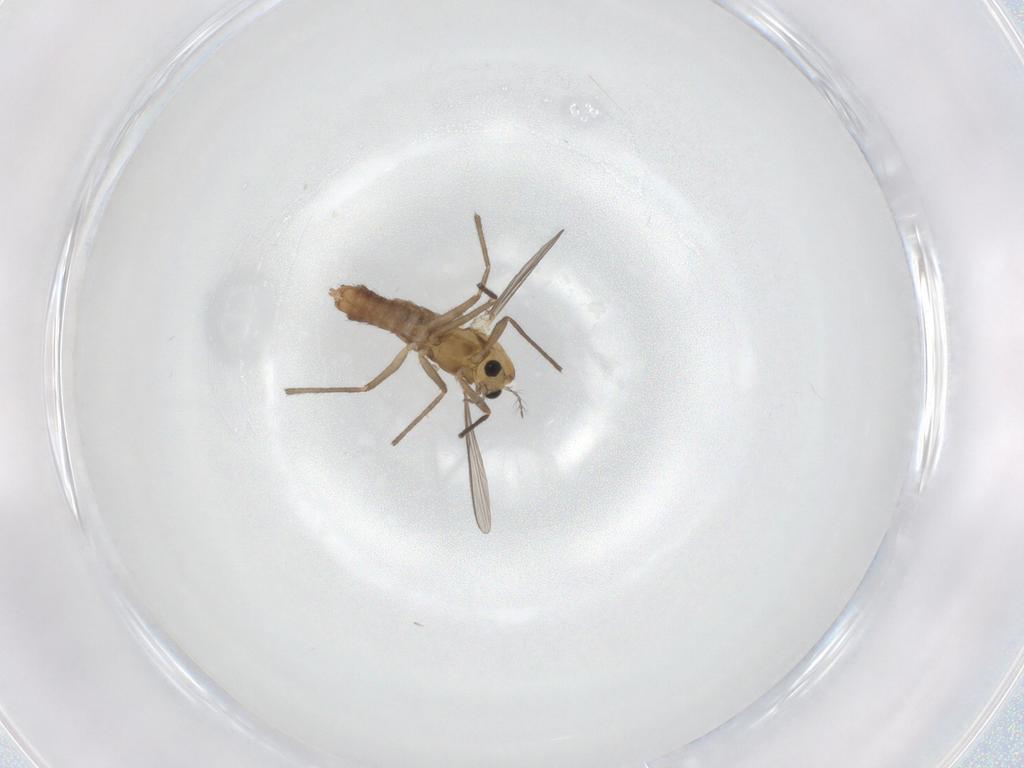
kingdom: Animalia
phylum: Arthropoda
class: Insecta
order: Diptera
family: Chironomidae
